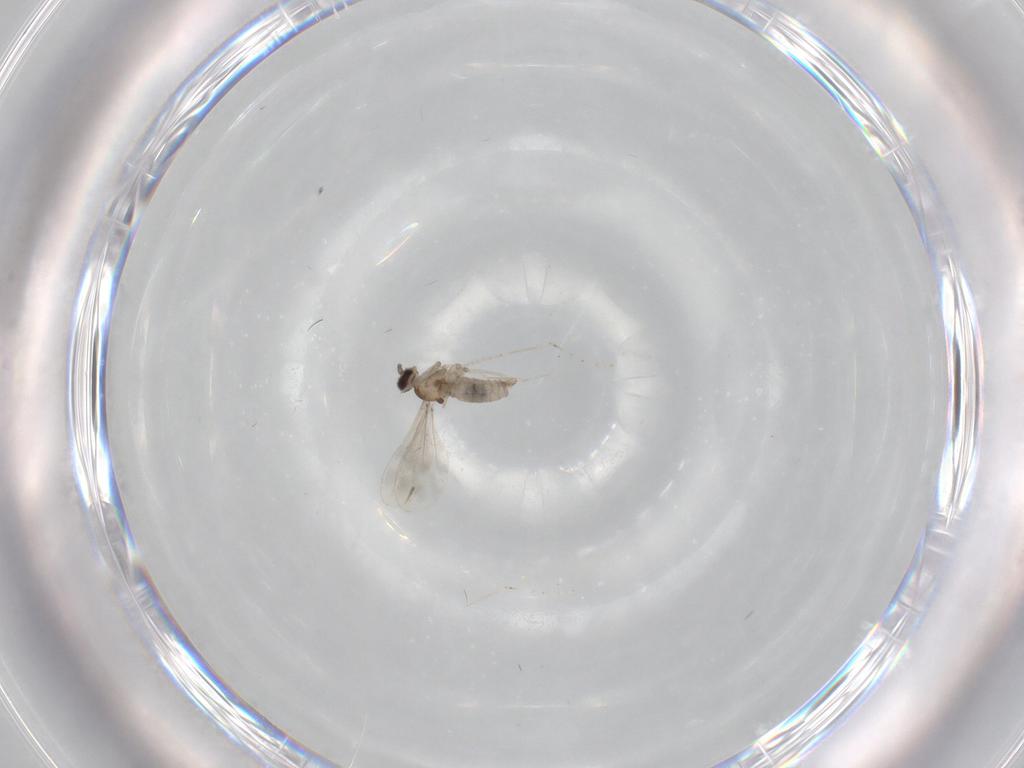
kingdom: Animalia
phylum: Arthropoda
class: Insecta
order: Diptera
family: Cecidomyiidae
